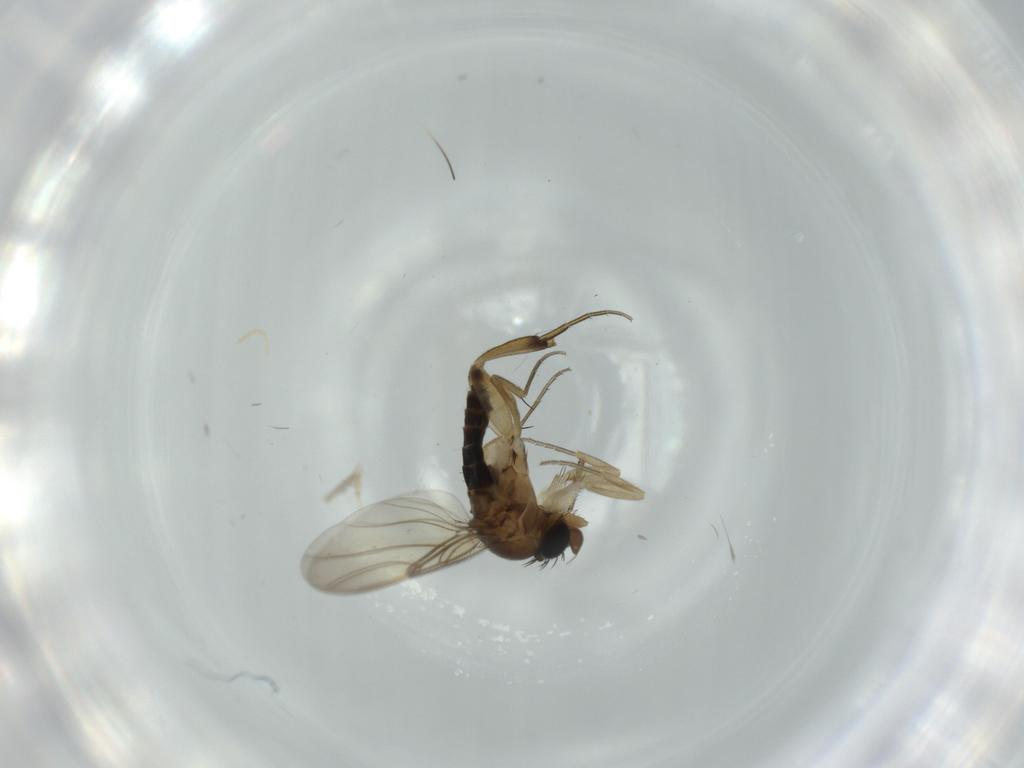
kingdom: Animalia
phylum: Arthropoda
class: Insecta
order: Diptera
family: Phoridae
